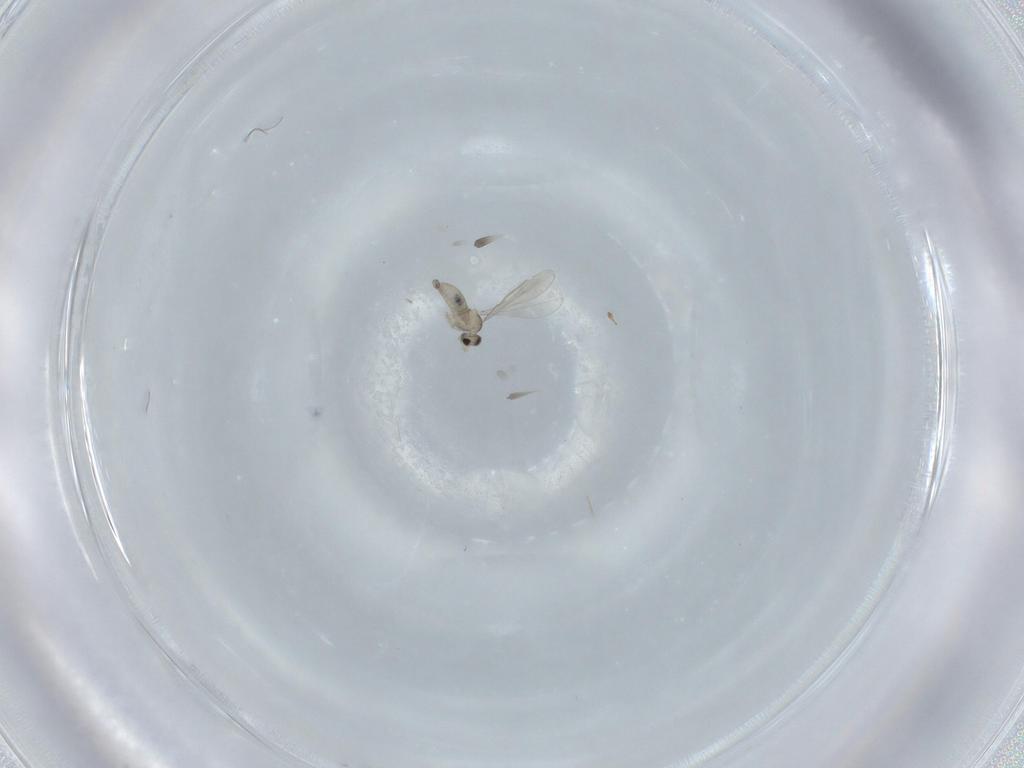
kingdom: Animalia
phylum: Arthropoda
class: Insecta
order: Diptera
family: Cecidomyiidae
